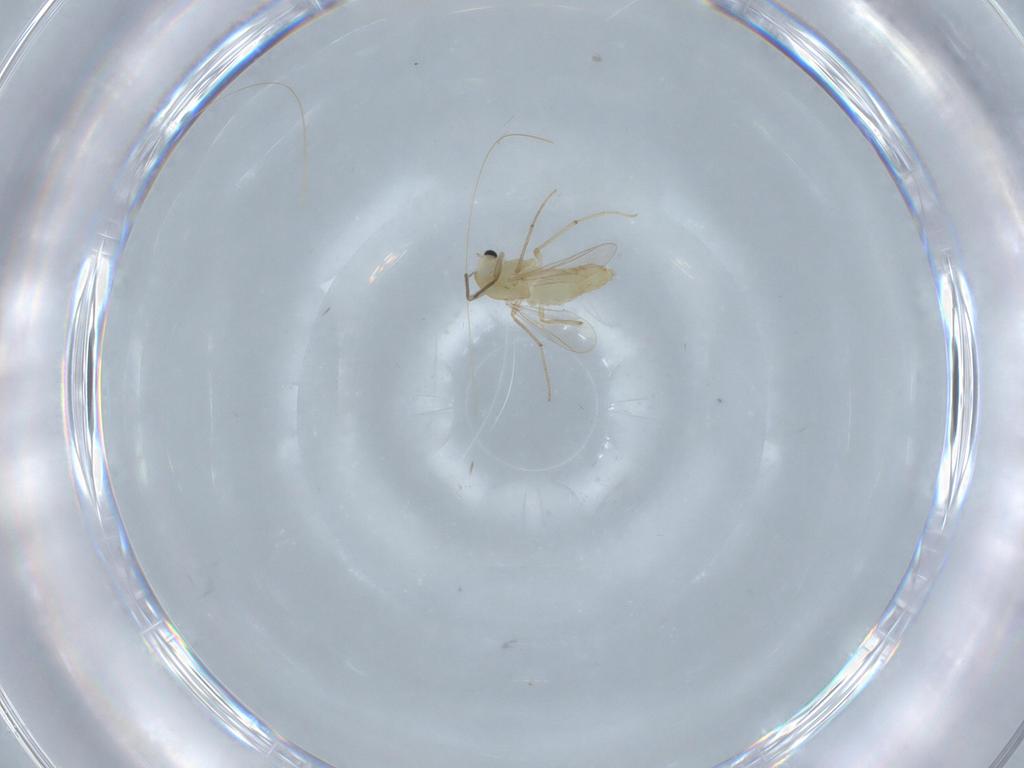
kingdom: Animalia
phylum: Arthropoda
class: Insecta
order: Diptera
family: Chironomidae
